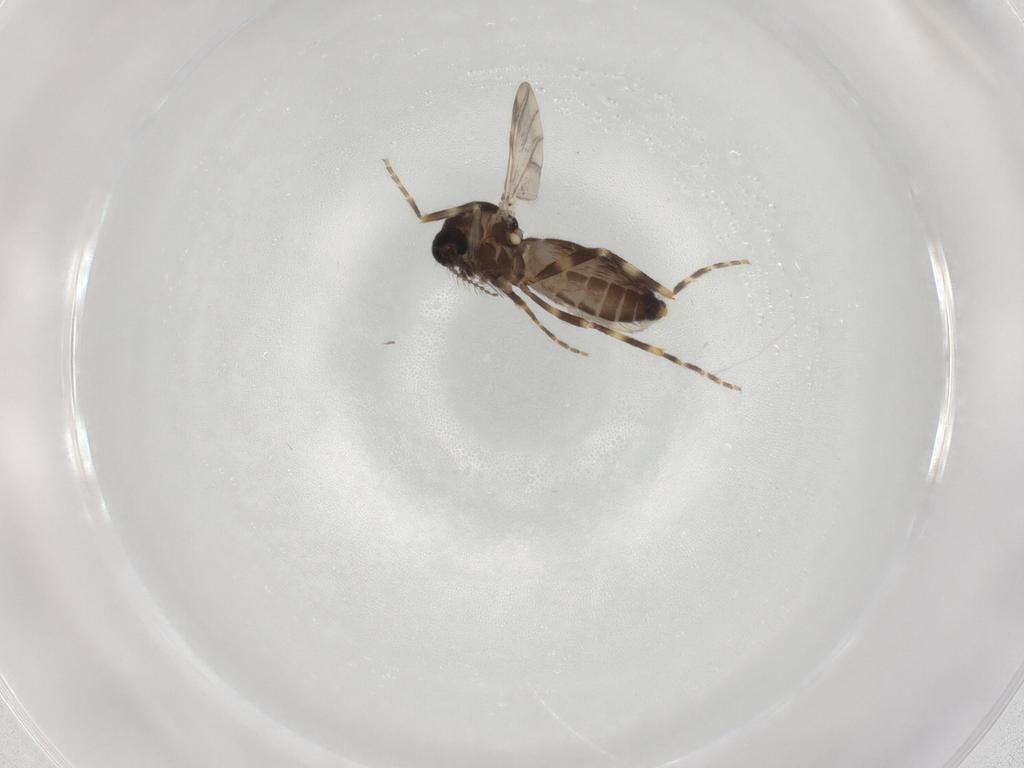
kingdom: Animalia
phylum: Arthropoda
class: Insecta
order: Diptera
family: Ceratopogonidae
